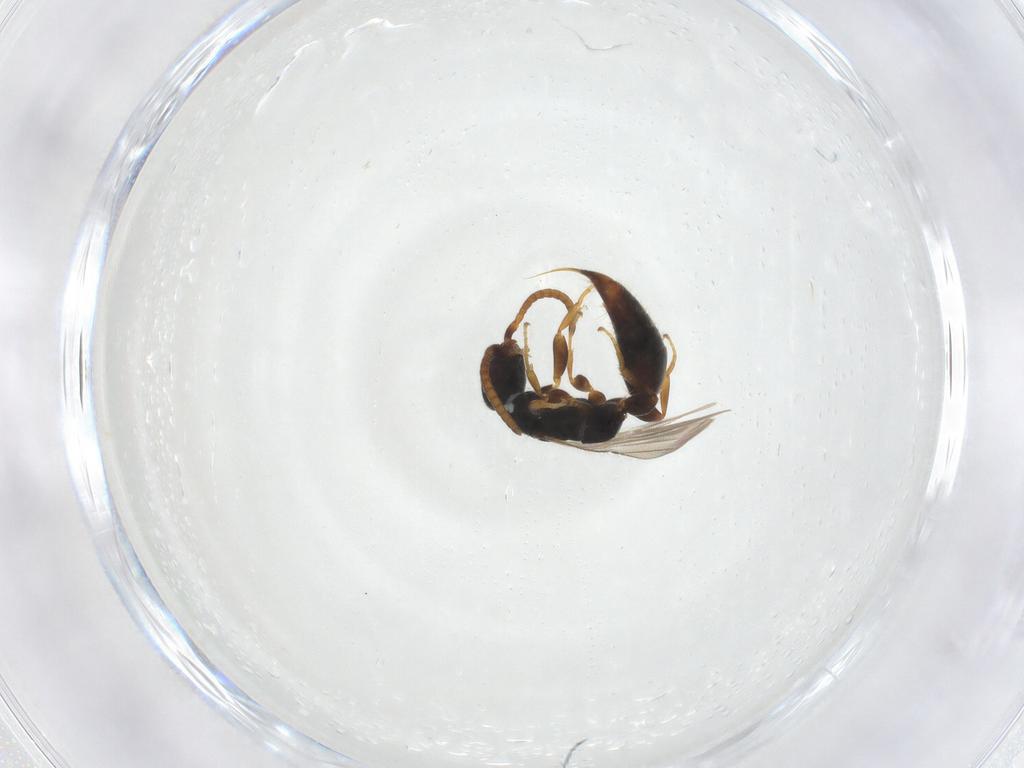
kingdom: Animalia
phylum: Arthropoda
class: Insecta
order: Hymenoptera
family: Bethylidae
